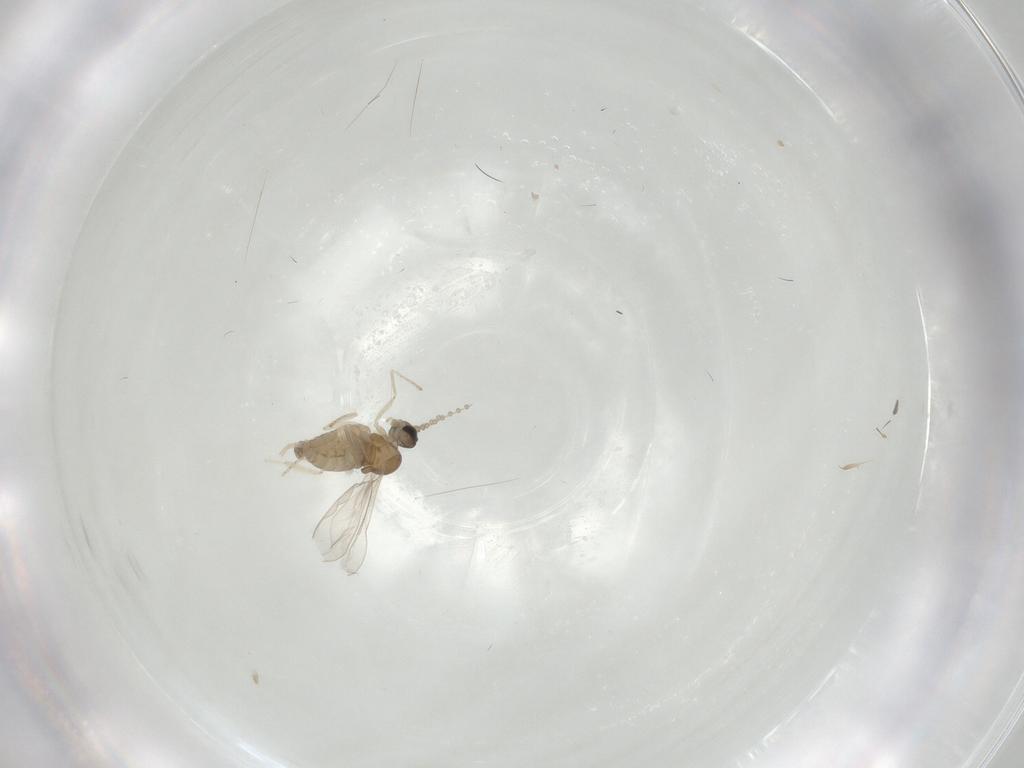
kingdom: Animalia
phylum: Arthropoda
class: Insecta
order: Diptera
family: Cecidomyiidae
